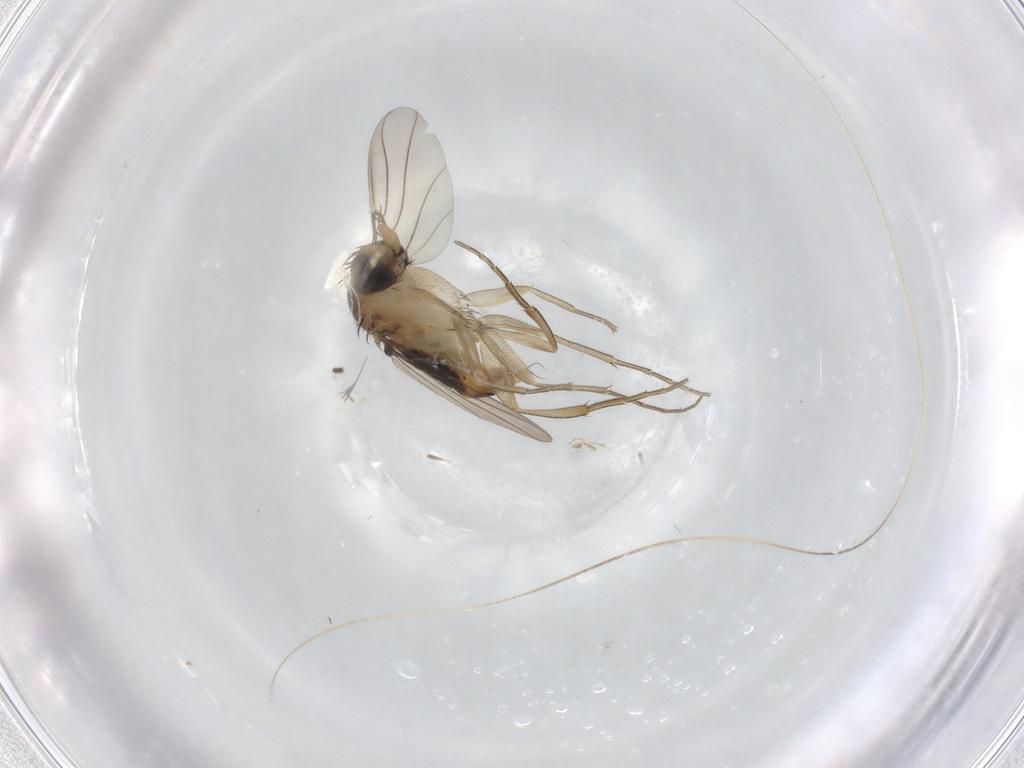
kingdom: Animalia
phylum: Arthropoda
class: Insecta
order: Diptera
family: Phoridae
